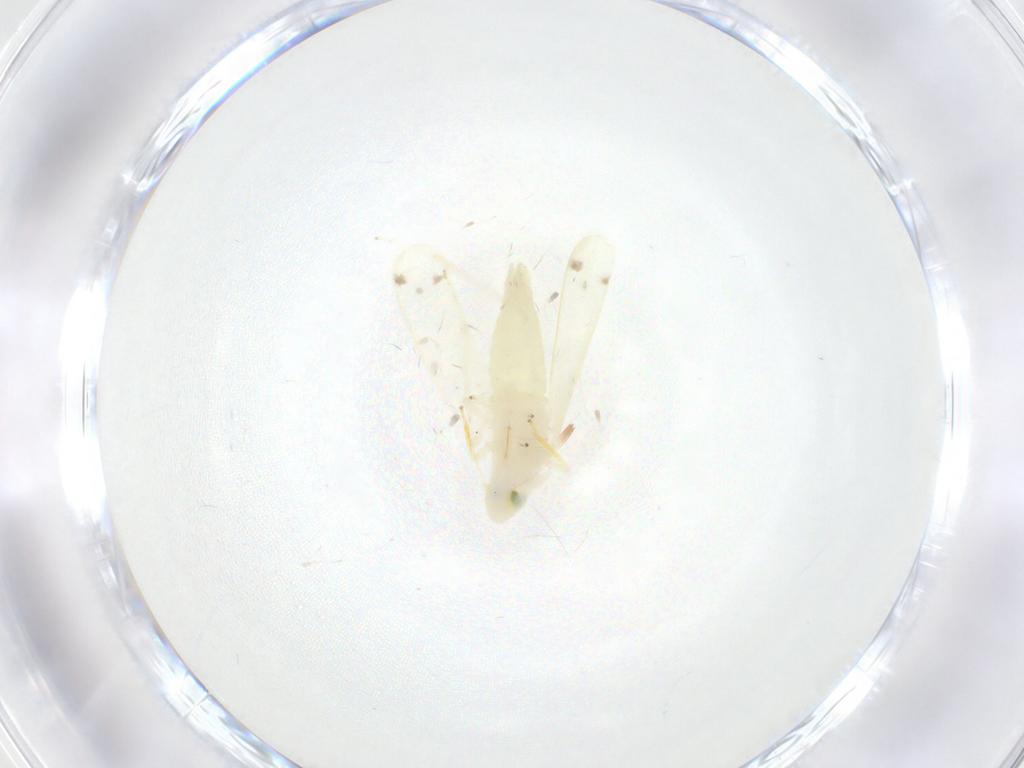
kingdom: Animalia
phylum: Arthropoda
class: Insecta
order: Hemiptera
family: Cicadellidae
